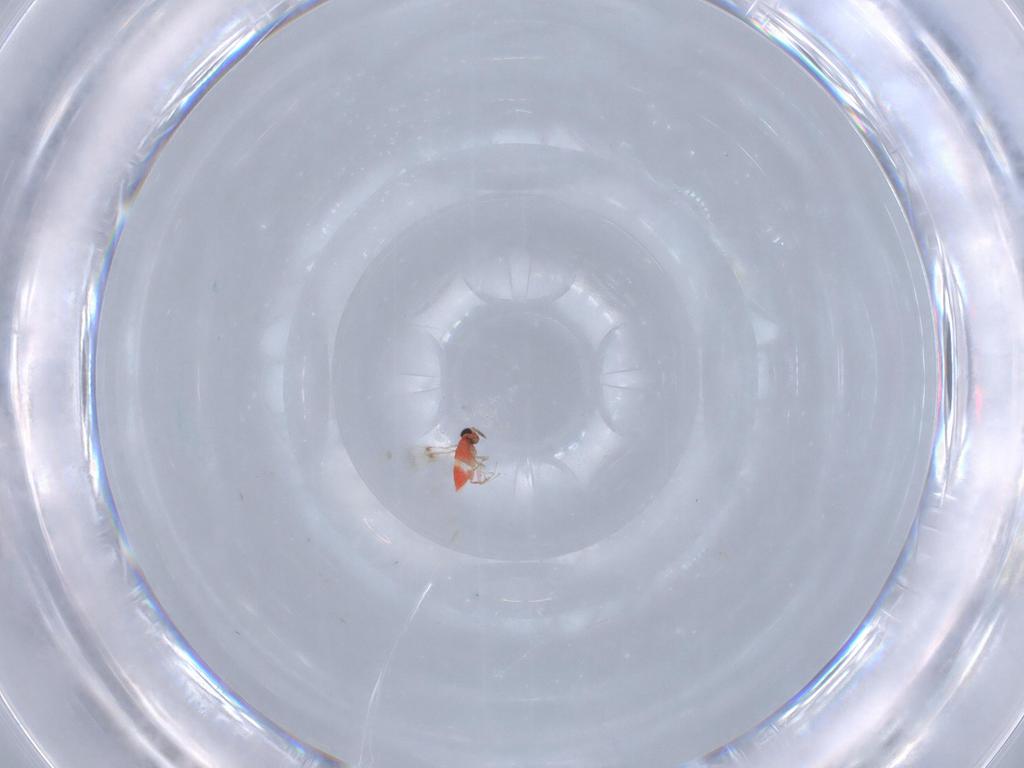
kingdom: Animalia
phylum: Arthropoda
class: Insecta
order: Hymenoptera
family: Trichogrammatidae
